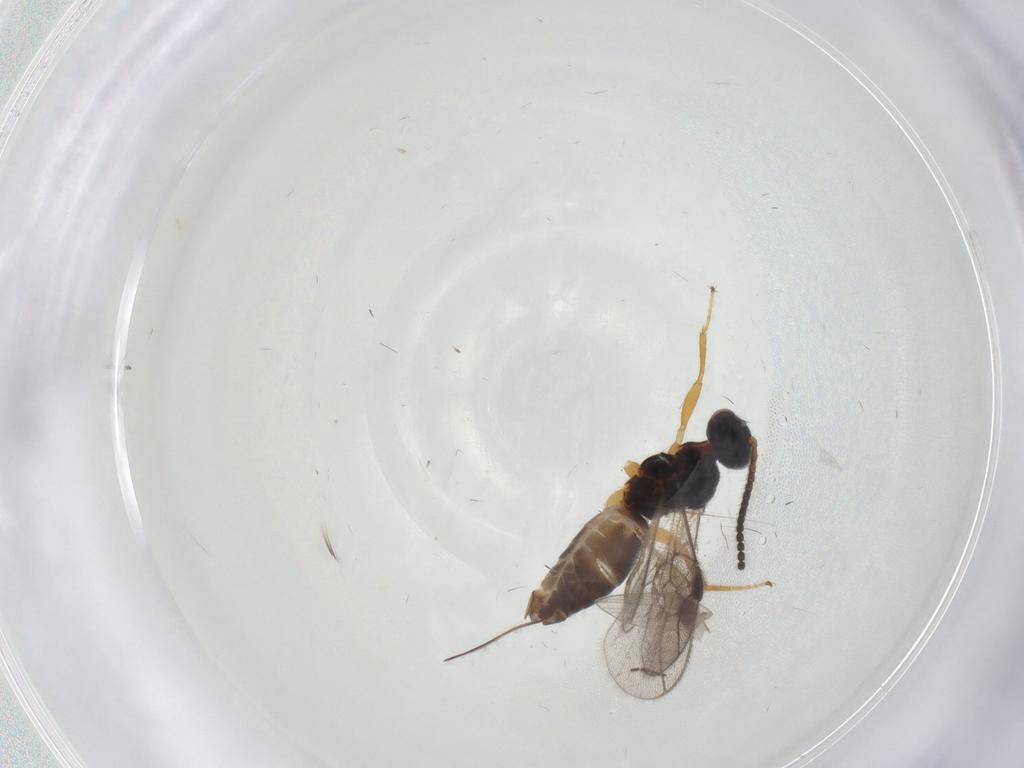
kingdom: Animalia
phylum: Arthropoda
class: Insecta
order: Hymenoptera
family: Braconidae
